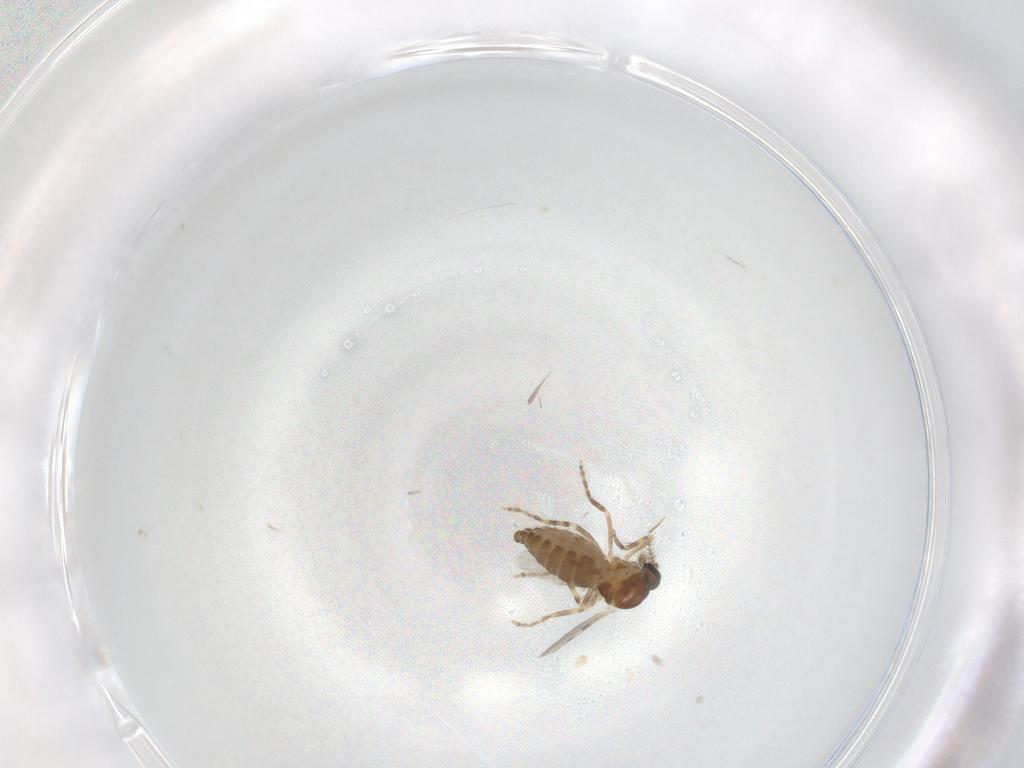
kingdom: Animalia
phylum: Arthropoda
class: Insecta
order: Diptera
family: Ceratopogonidae
